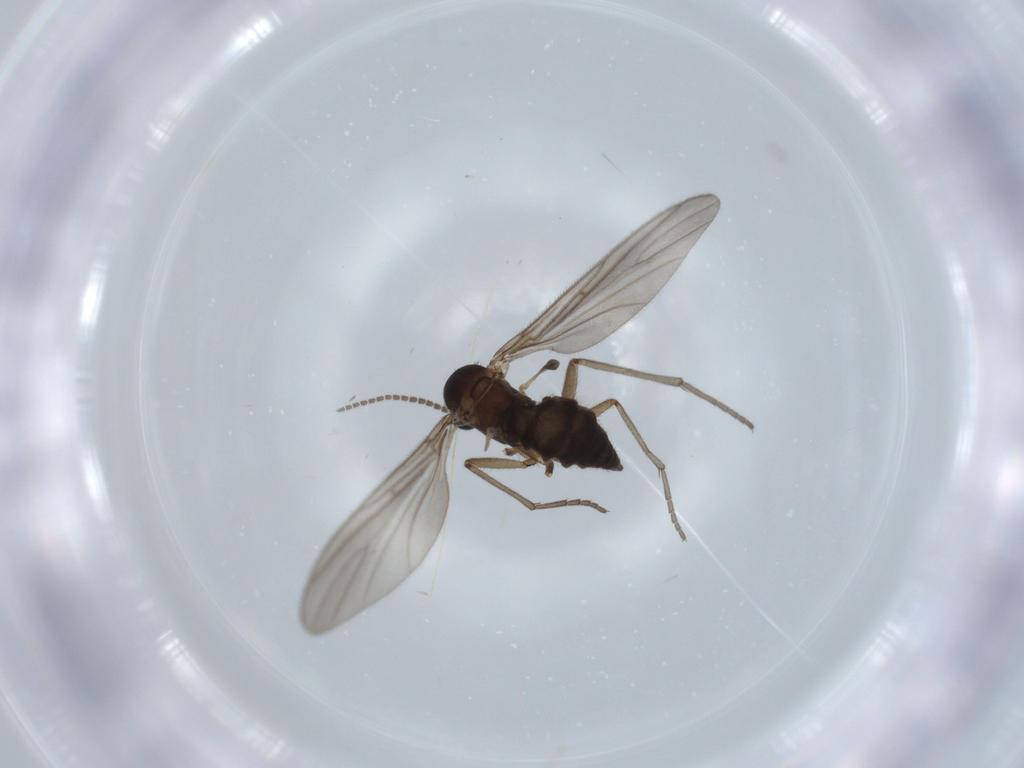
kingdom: Animalia
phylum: Arthropoda
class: Insecta
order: Diptera
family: Sciaridae
